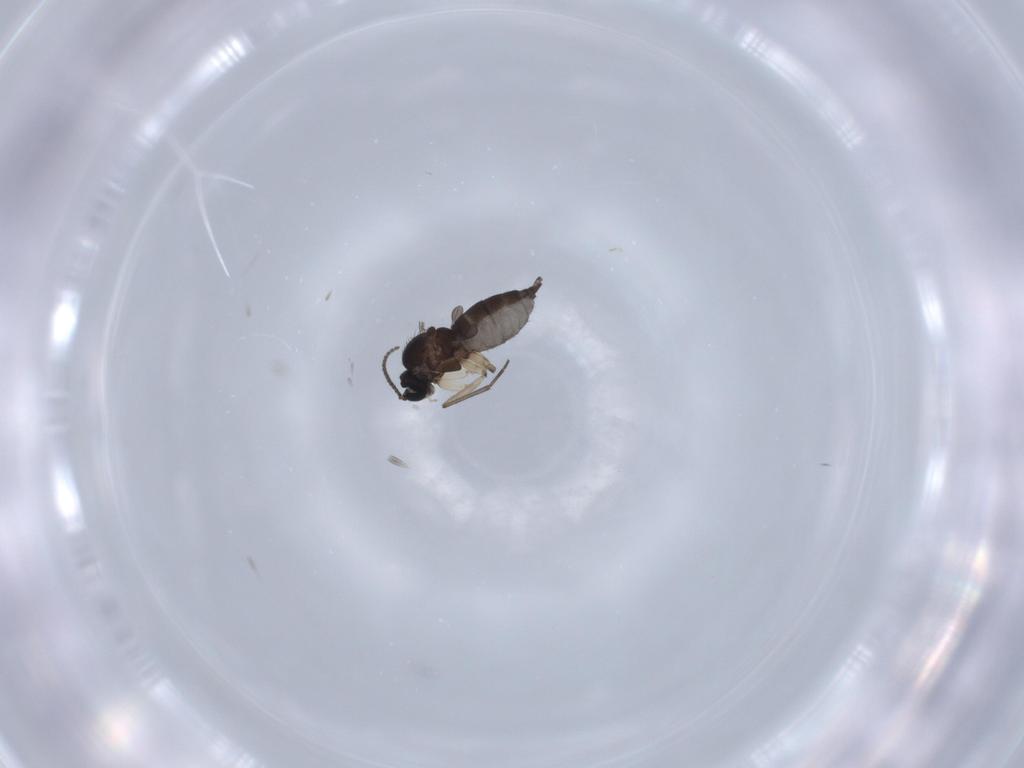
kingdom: Animalia
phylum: Arthropoda
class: Insecta
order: Diptera
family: Sciaridae
